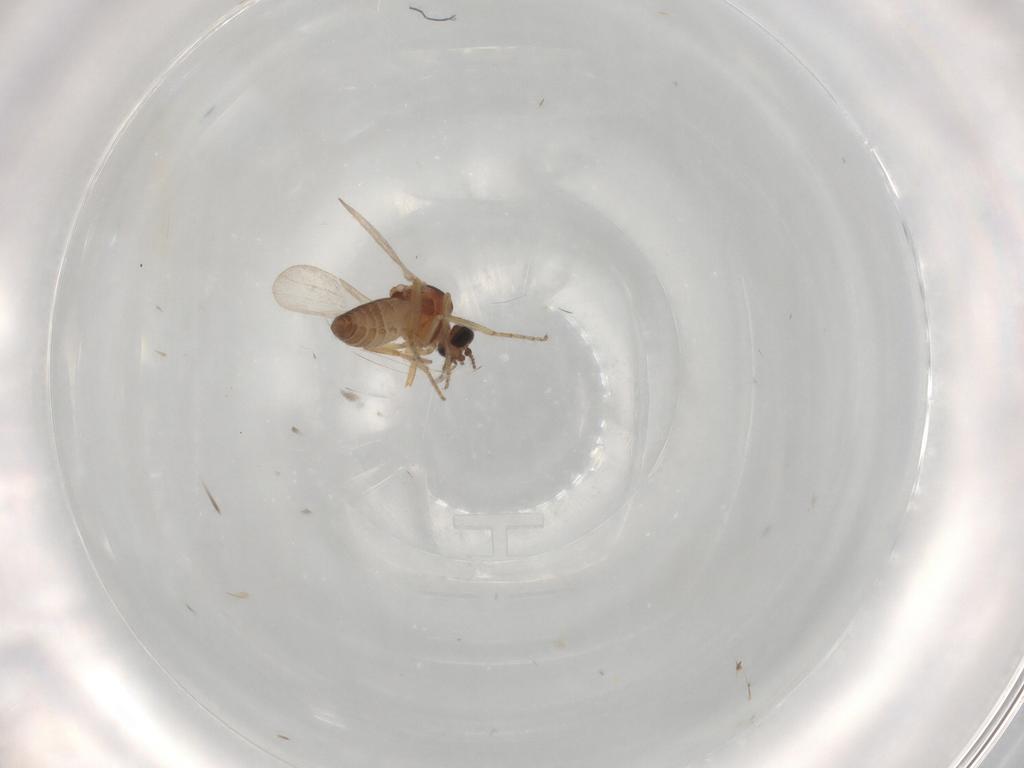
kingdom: Animalia
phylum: Arthropoda
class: Insecta
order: Diptera
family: Ceratopogonidae
